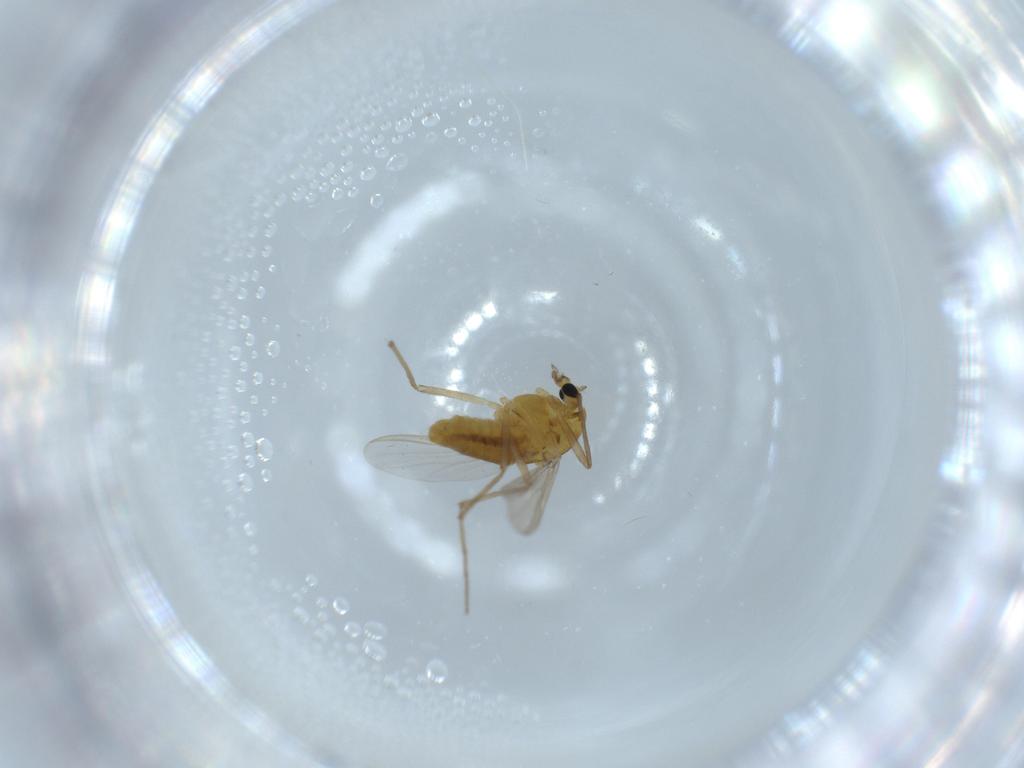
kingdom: Animalia
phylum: Arthropoda
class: Insecta
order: Diptera
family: Chironomidae
